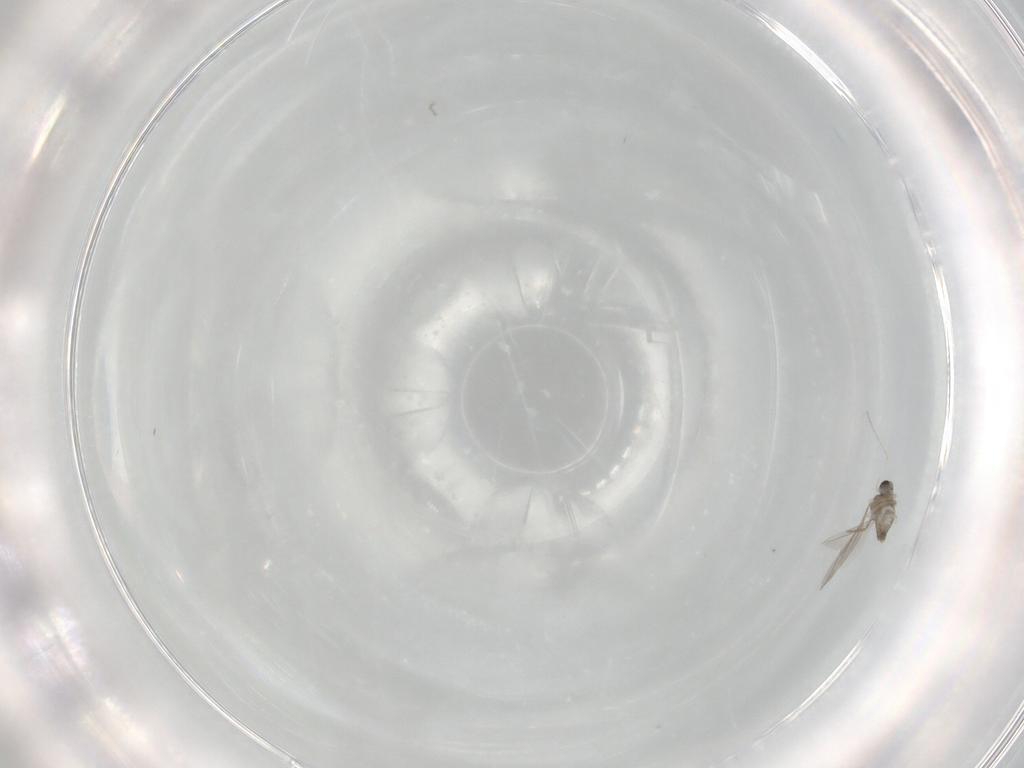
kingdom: Animalia
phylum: Arthropoda
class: Insecta
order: Diptera
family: Cecidomyiidae
